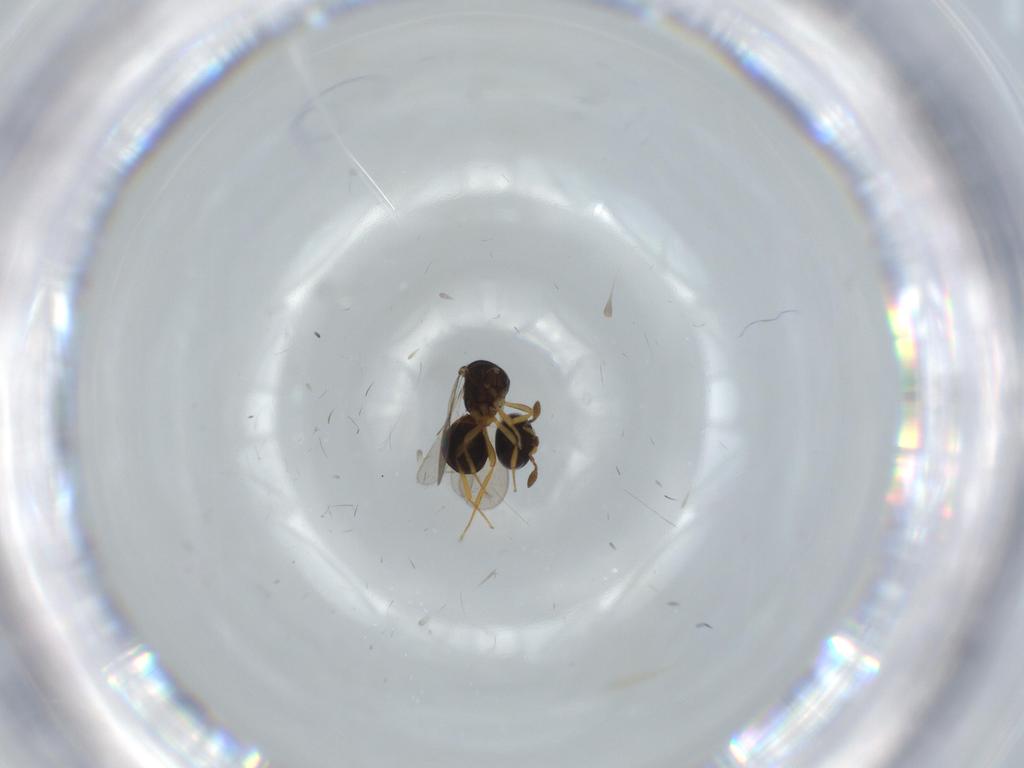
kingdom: Animalia
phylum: Arthropoda
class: Insecta
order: Hymenoptera
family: Scelionidae
